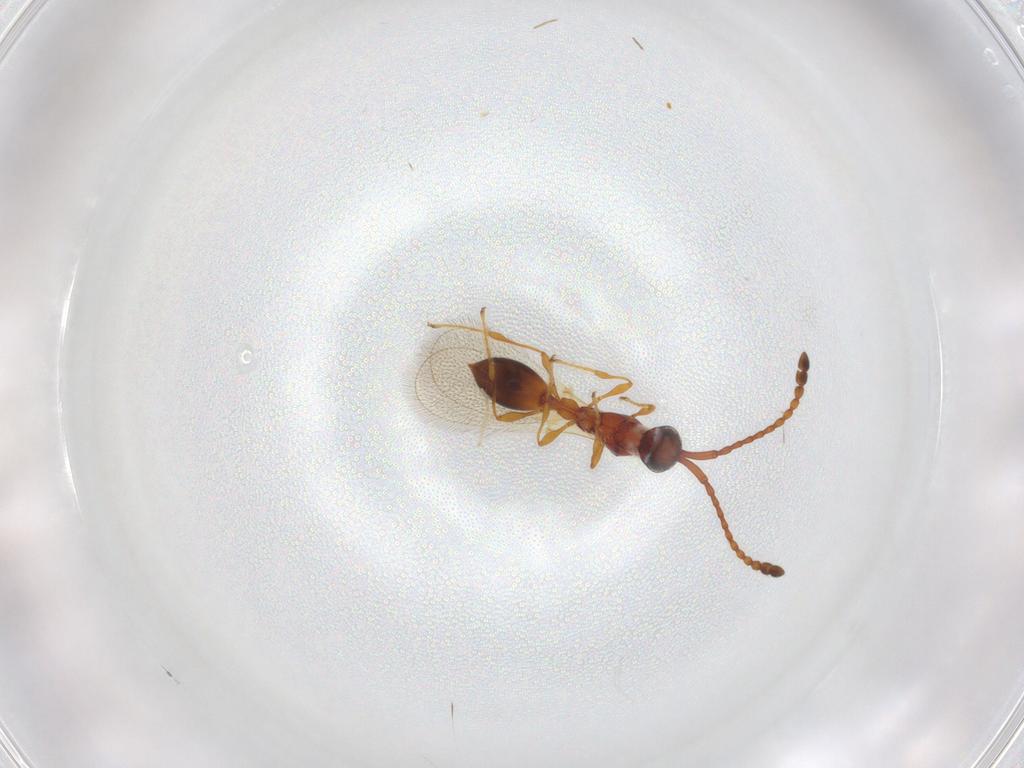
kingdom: Animalia
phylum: Arthropoda
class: Insecta
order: Hymenoptera
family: Diapriidae
